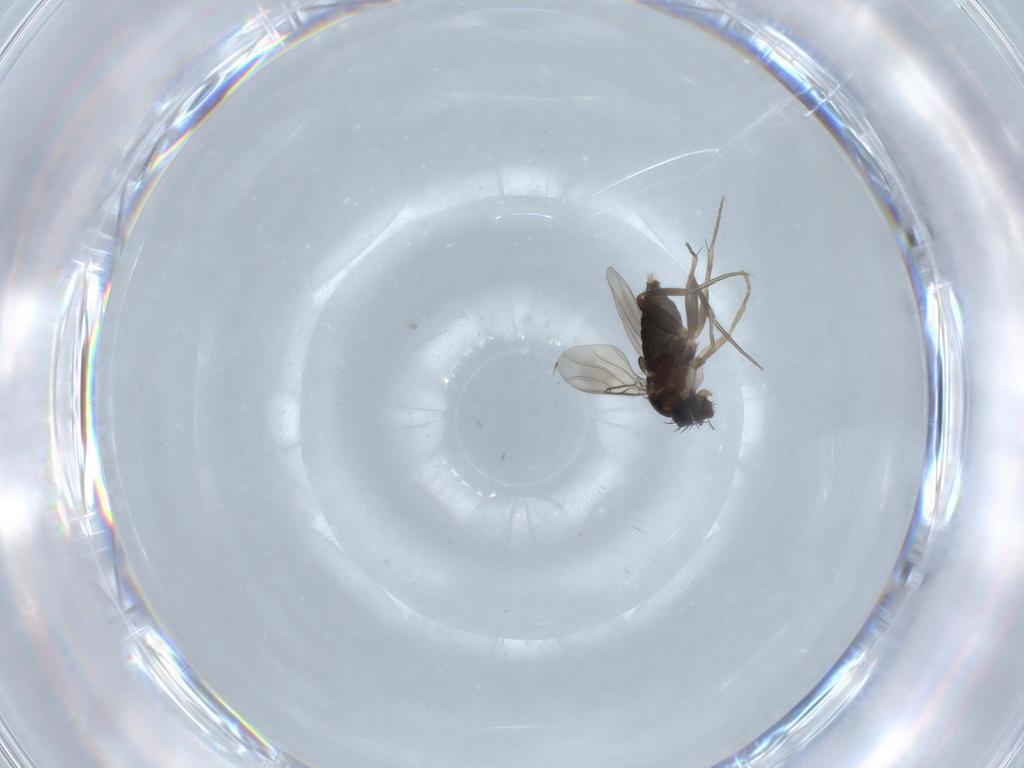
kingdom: Animalia
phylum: Arthropoda
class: Insecta
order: Diptera
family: Phoridae
